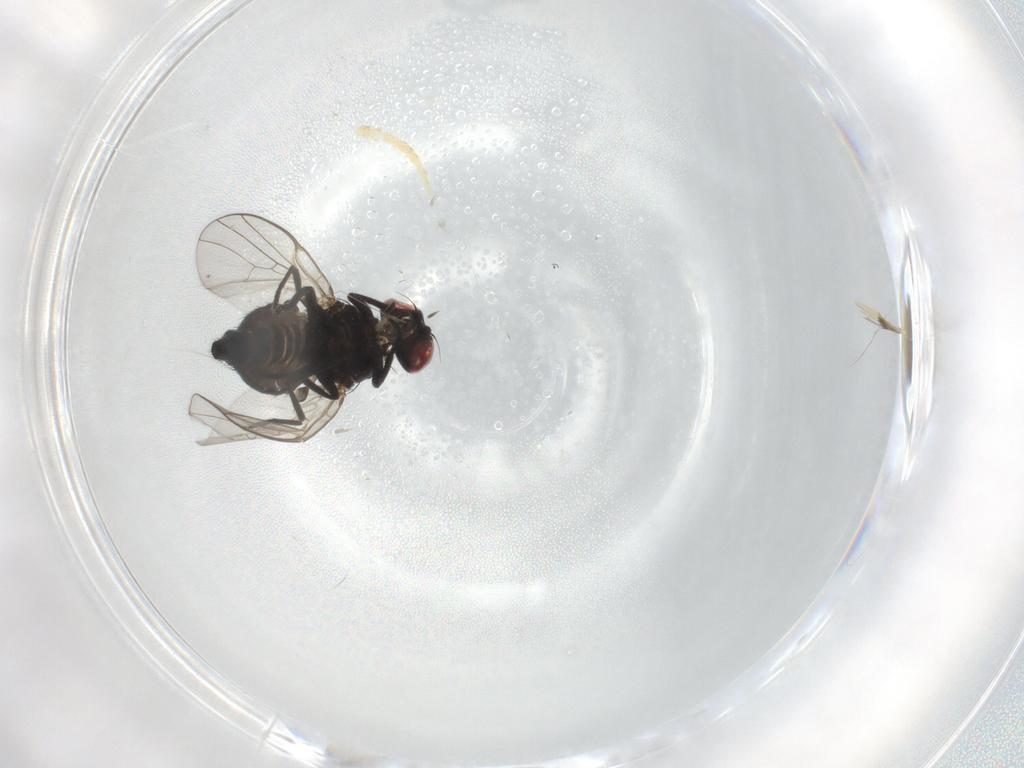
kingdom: Animalia
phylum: Arthropoda
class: Insecta
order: Diptera
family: Agromyzidae
